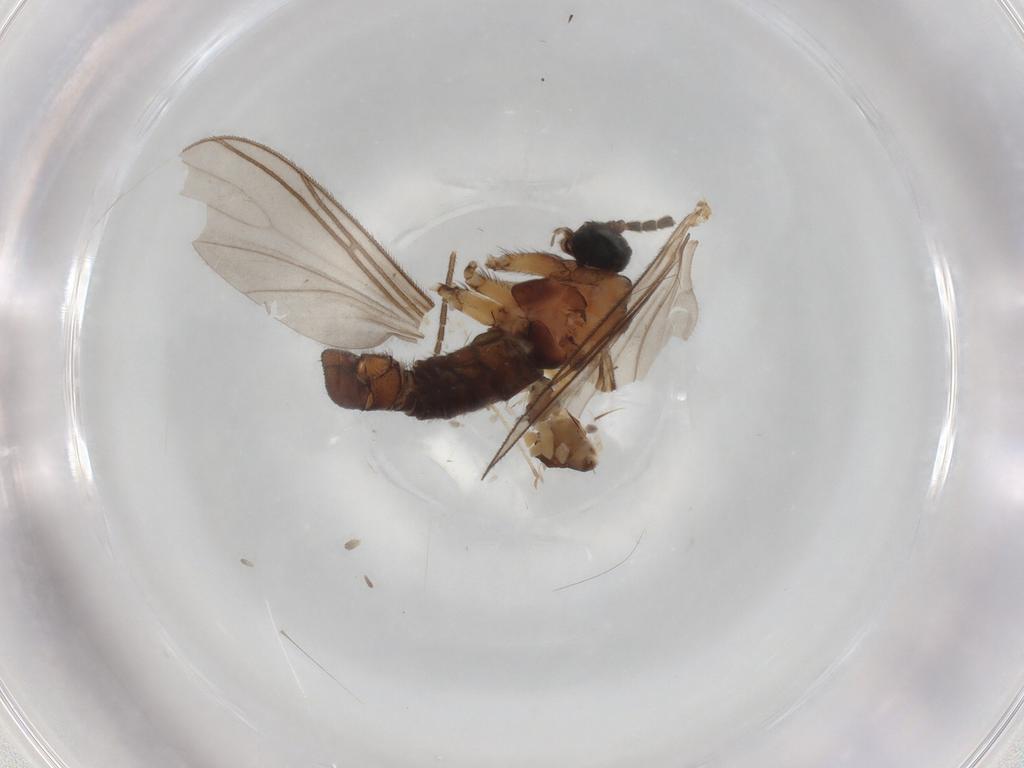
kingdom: Animalia
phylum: Arthropoda
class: Insecta
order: Diptera
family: Sciaridae
